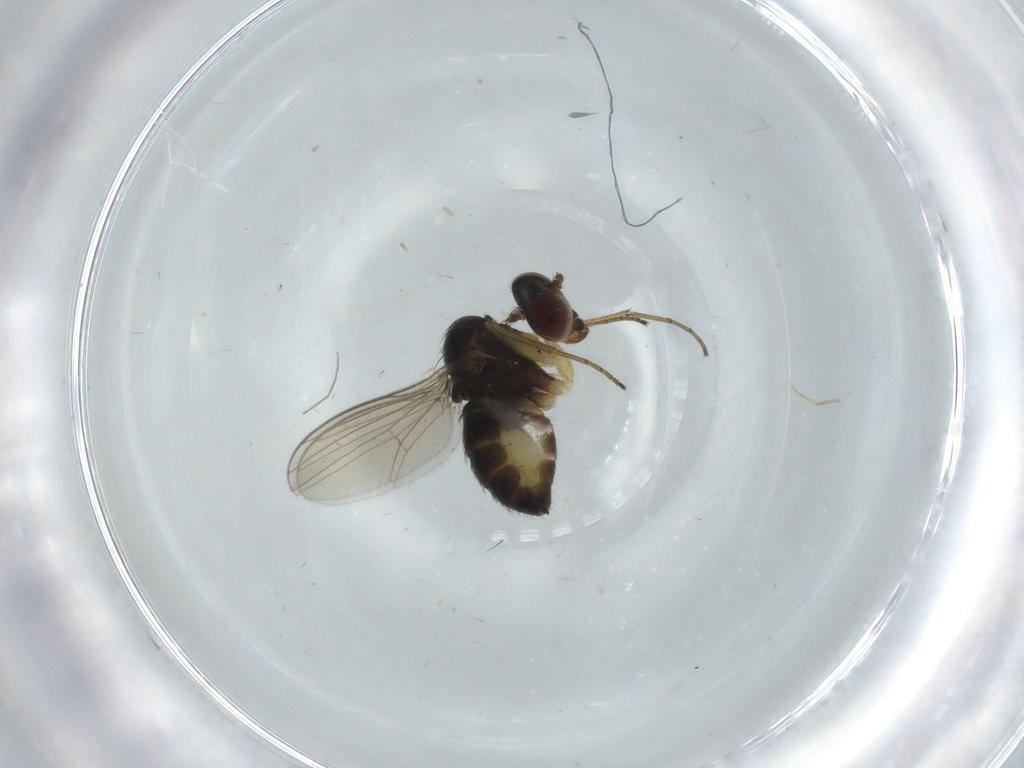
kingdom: Animalia
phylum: Arthropoda
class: Insecta
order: Diptera
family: Dolichopodidae
